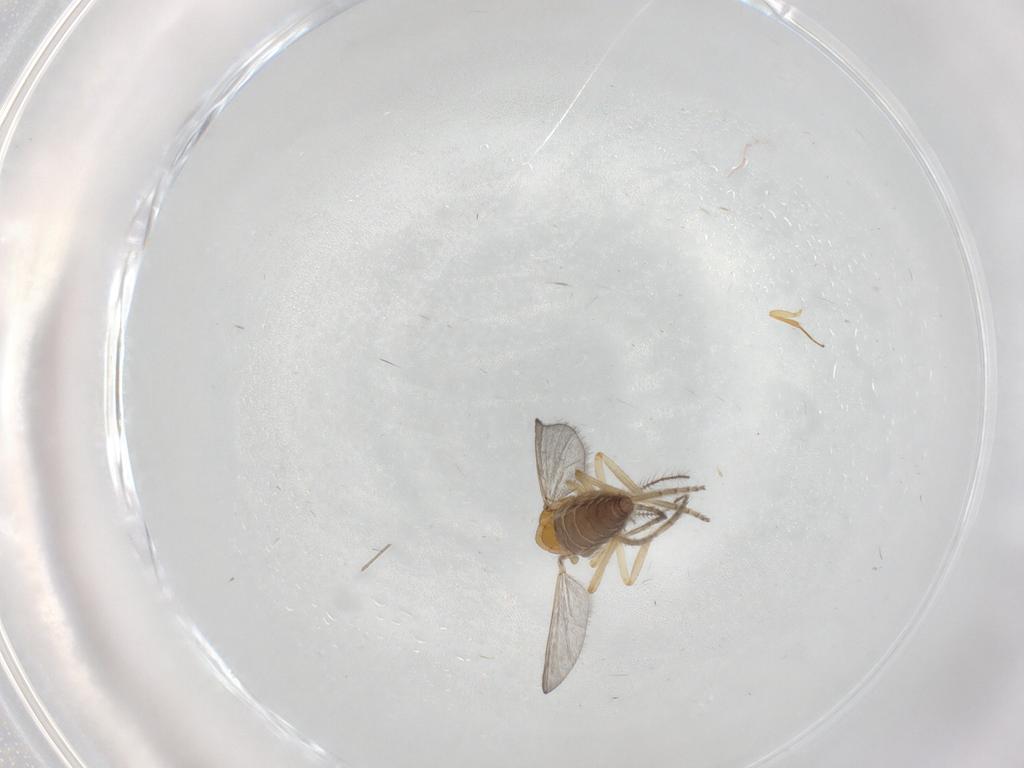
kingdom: Animalia
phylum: Arthropoda
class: Insecta
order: Diptera
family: Ceratopogonidae
